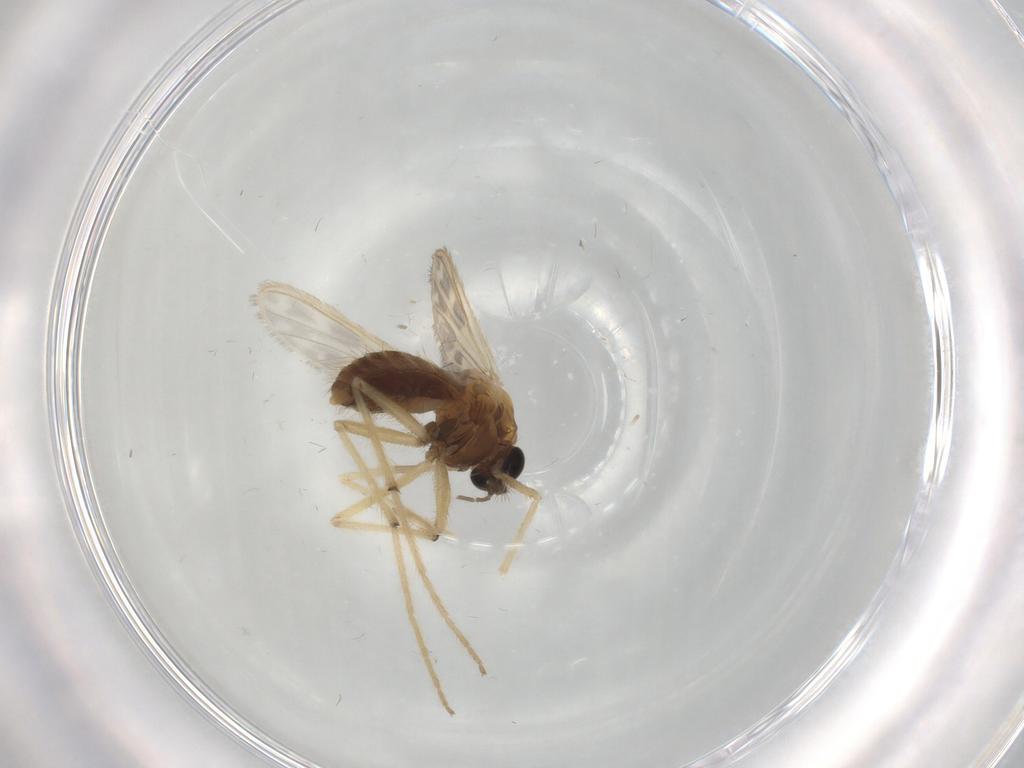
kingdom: Animalia
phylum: Arthropoda
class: Insecta
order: Diptera
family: Chironomidae
